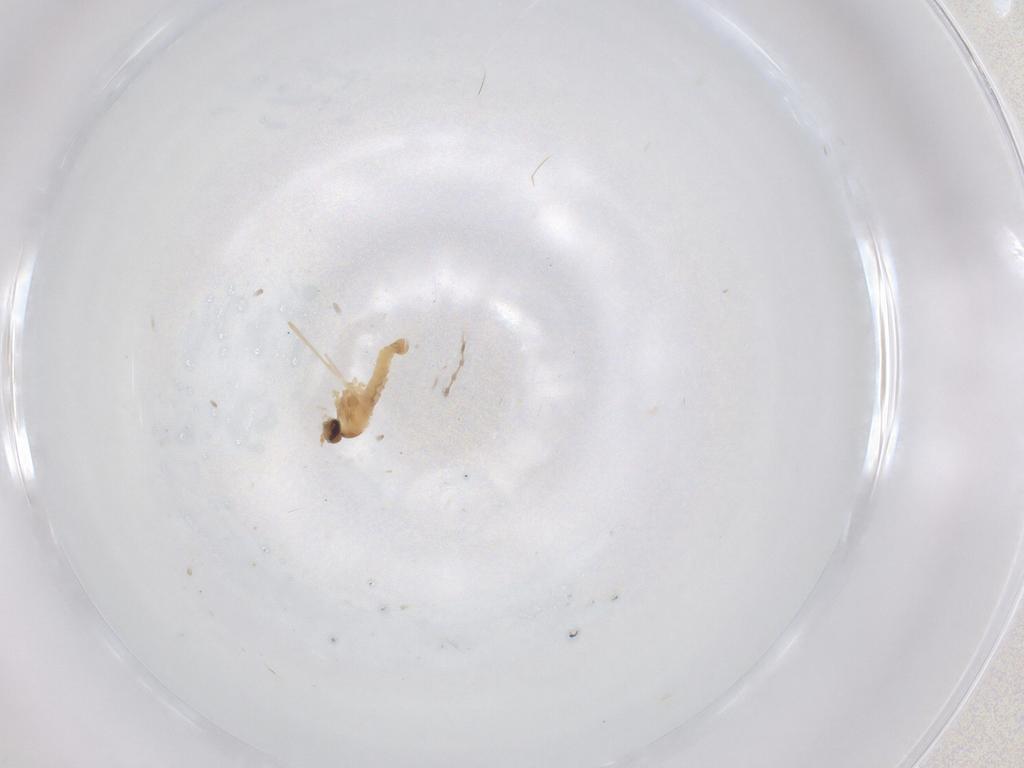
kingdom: Animalia
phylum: Arthropoda
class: Insecta
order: Diptera
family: Cecidomyiidae
